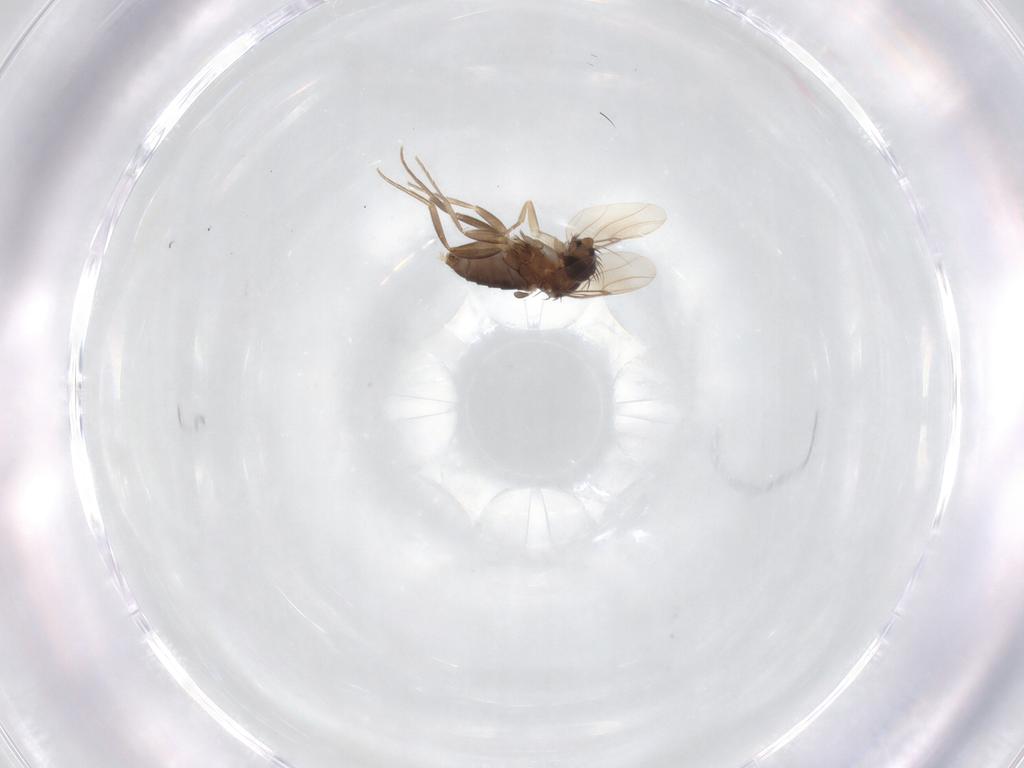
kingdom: Animalia
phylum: Arthropoda
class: Insecta
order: Diptera
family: Tabanidae
